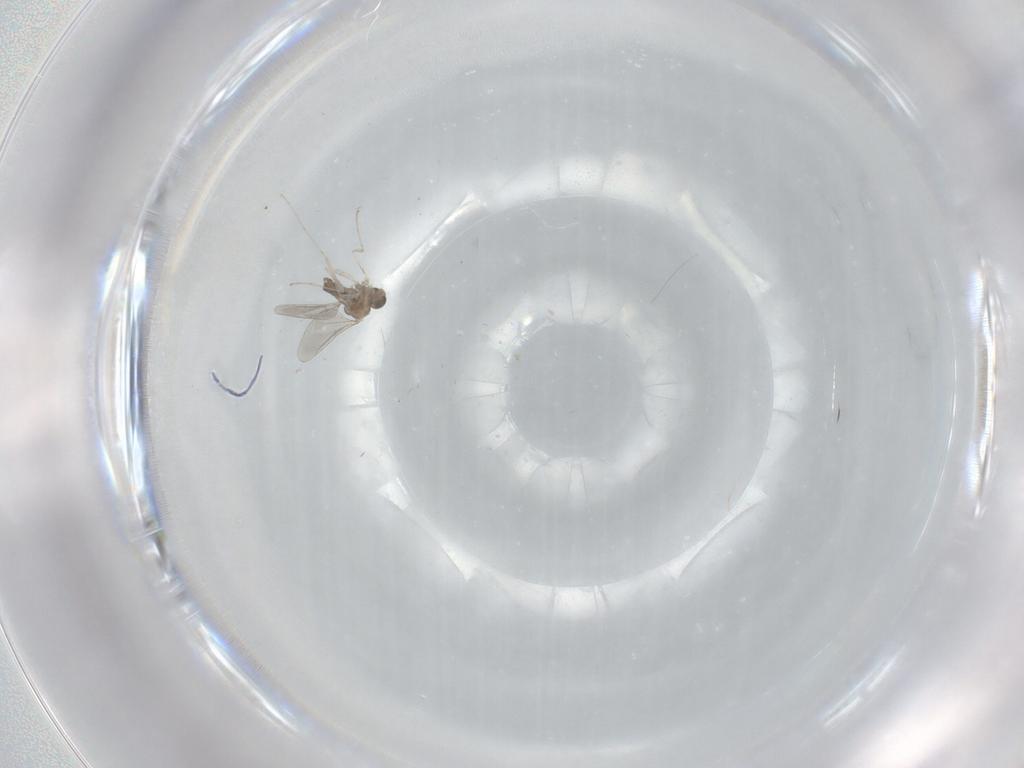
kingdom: Animalia
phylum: Arthropoda
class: Insecta
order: Diptera
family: Cecidomyiidae
